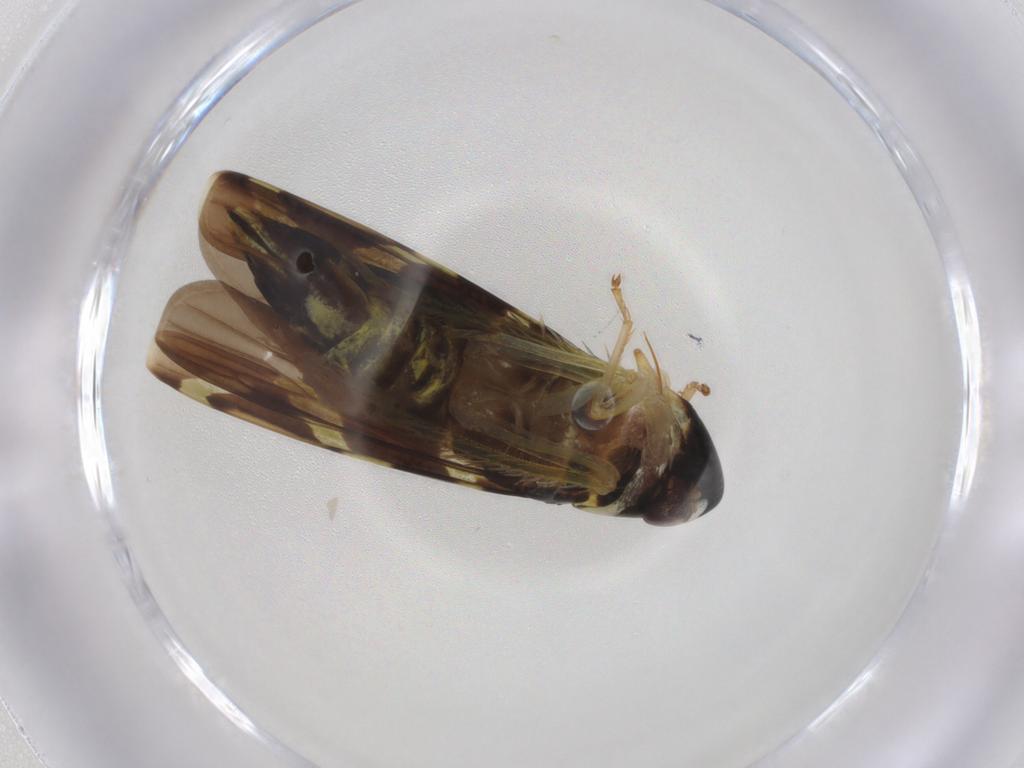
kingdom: Animalia
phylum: Arthropoda
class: Insecta
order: Hemiptera
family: Cicadellidae
